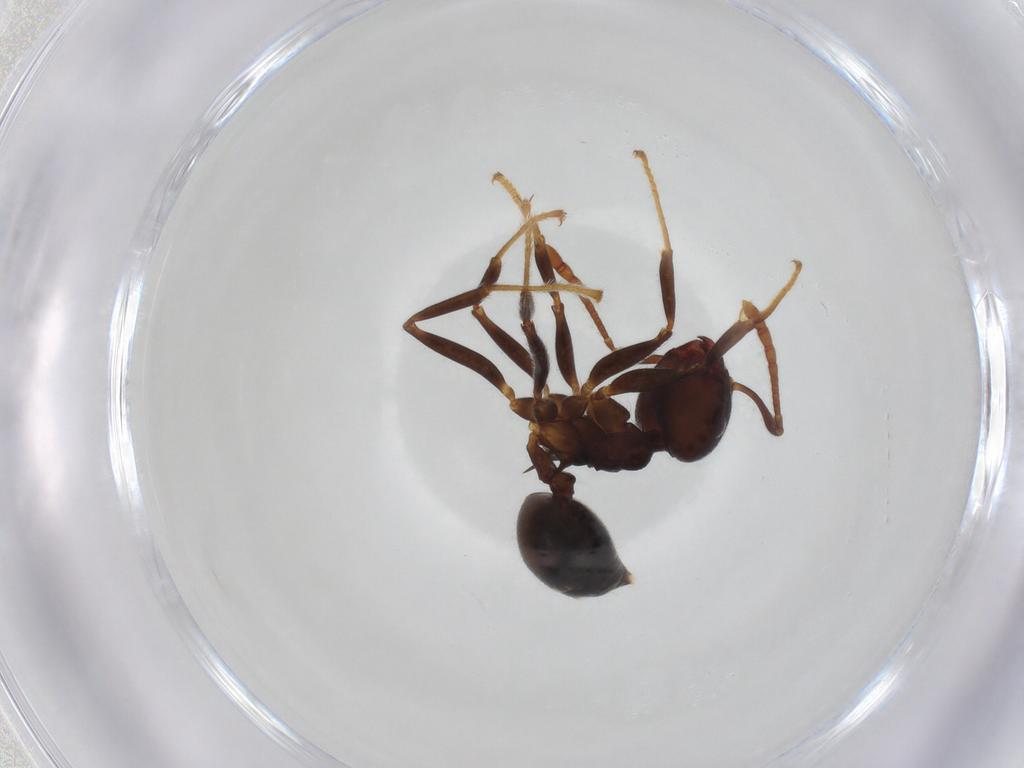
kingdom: Animalia
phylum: Arthropoda
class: Insecta
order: Hymenoptera
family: Scelionidae
